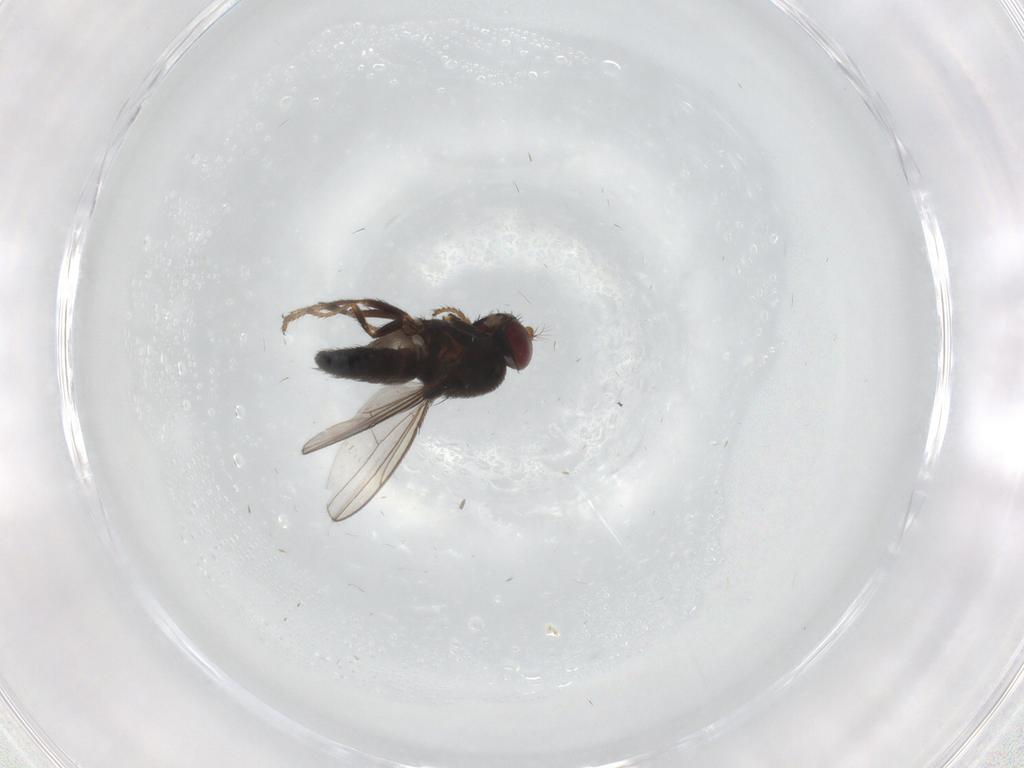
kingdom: Animalia
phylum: Arthropoda
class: Insecta
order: Diptera
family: Ephydridae
